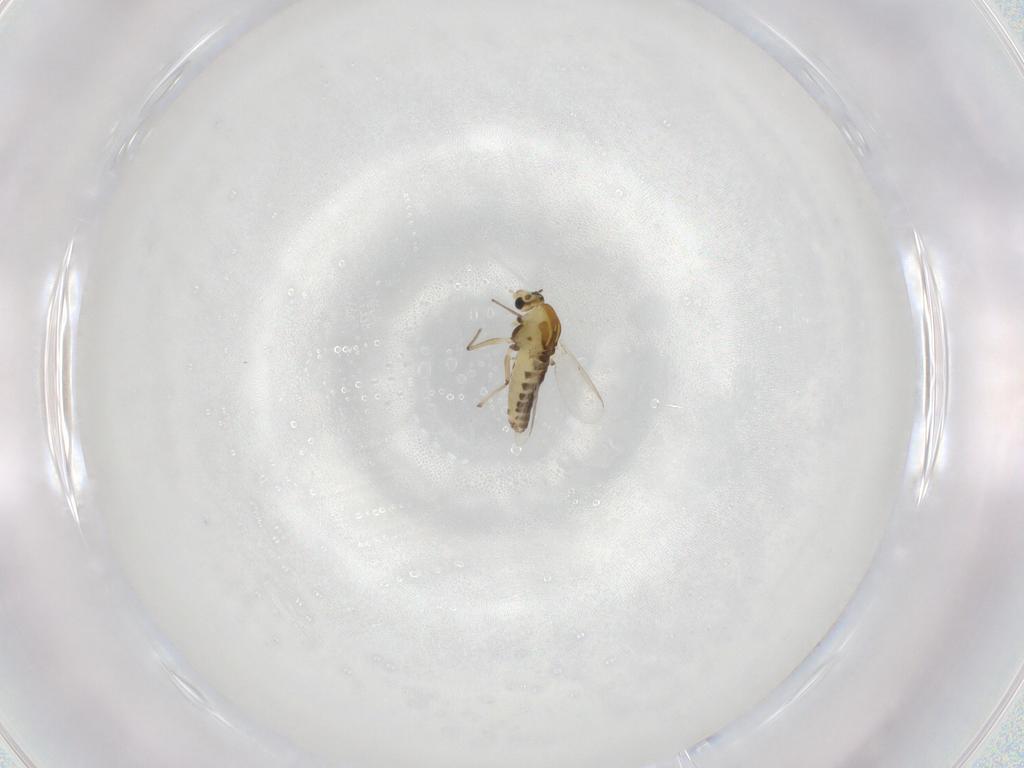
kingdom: Animalia
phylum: Arthropoda
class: Insecta
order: Diptera
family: Chironomidae
